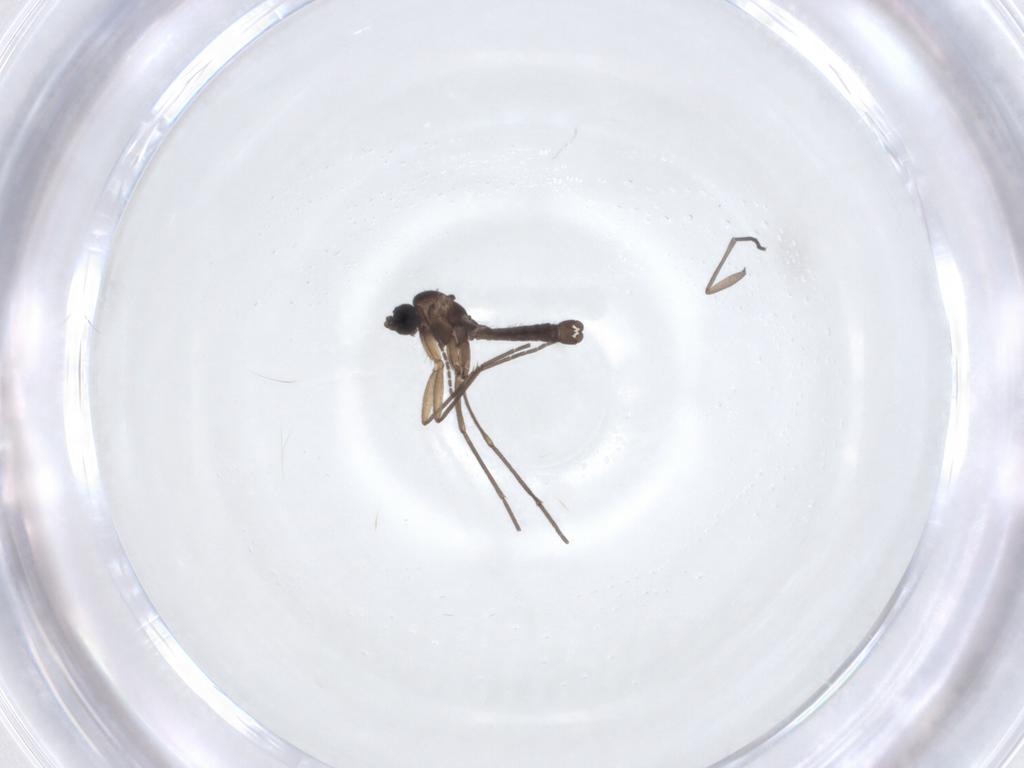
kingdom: Animalia
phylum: Arthropoda
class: Insecta
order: Diptera
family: Sciaridae
